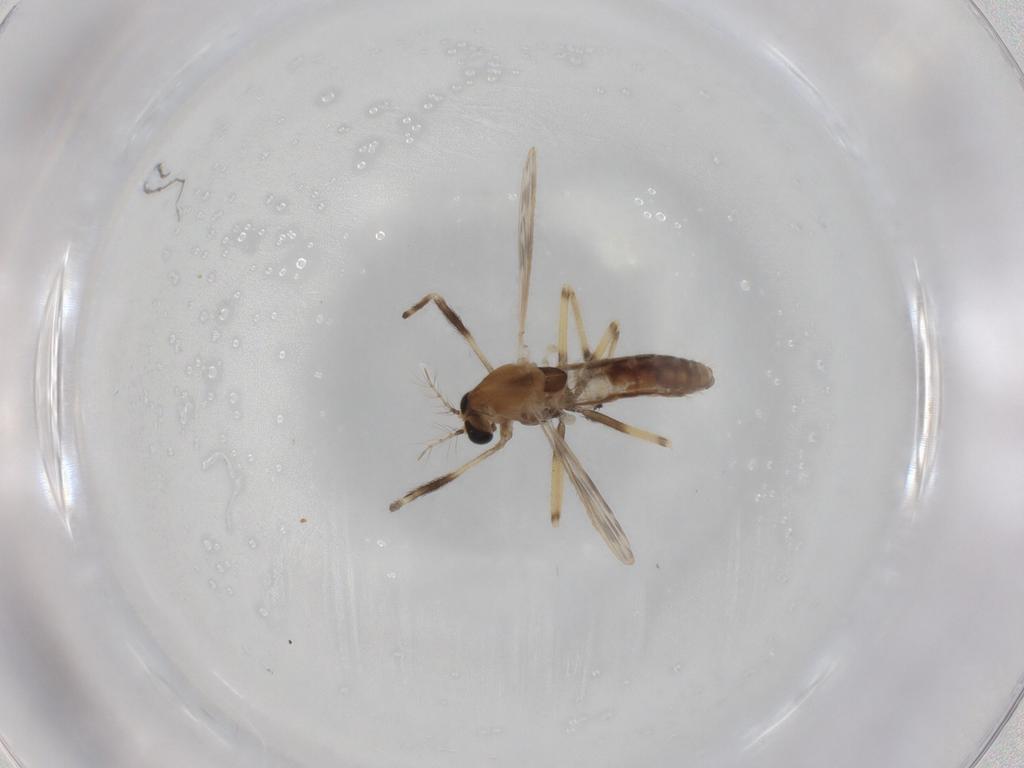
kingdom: Animalia
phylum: Arthropoda
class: Insecta
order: Diptera
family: Chironomidae
